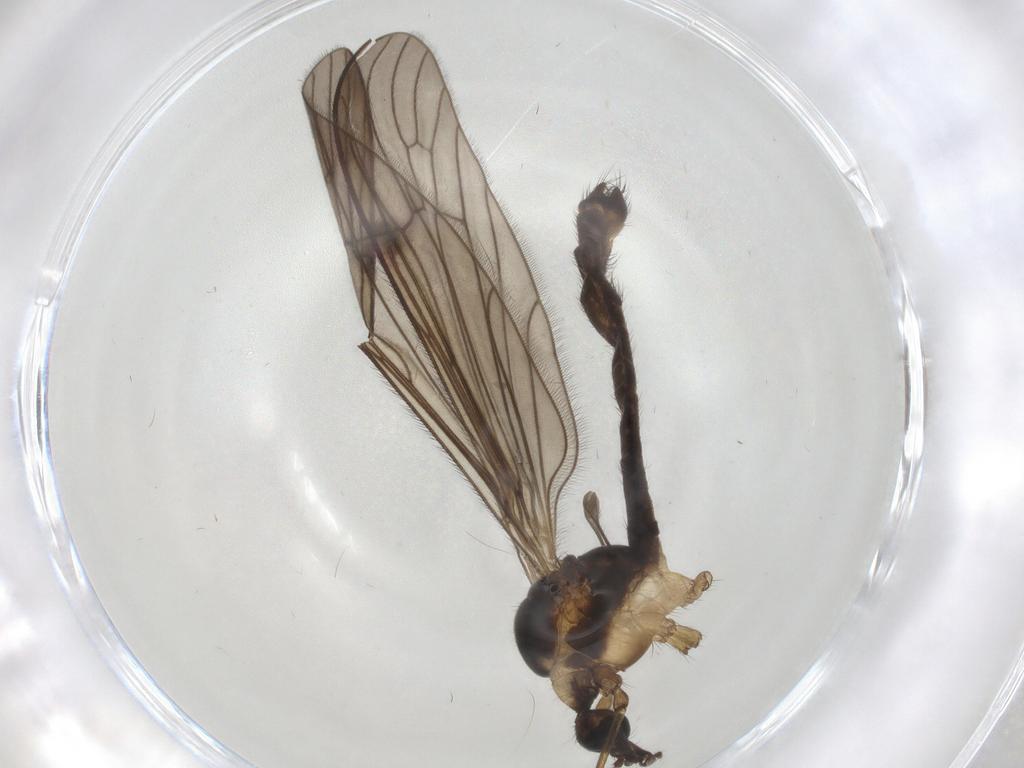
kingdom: Animalia
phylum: Arthropoda
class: Insecta
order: Diptera
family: Limoniidae
